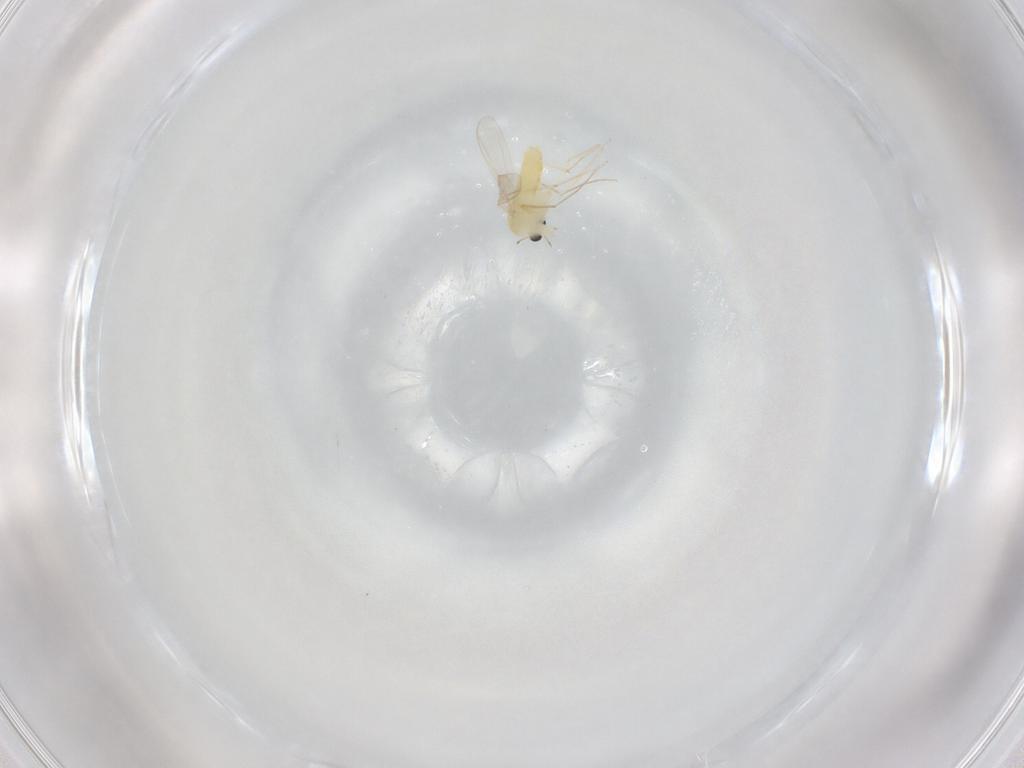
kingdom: Animalia
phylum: Arthropoda
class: Insecta
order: Diptera
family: Chironomidae
